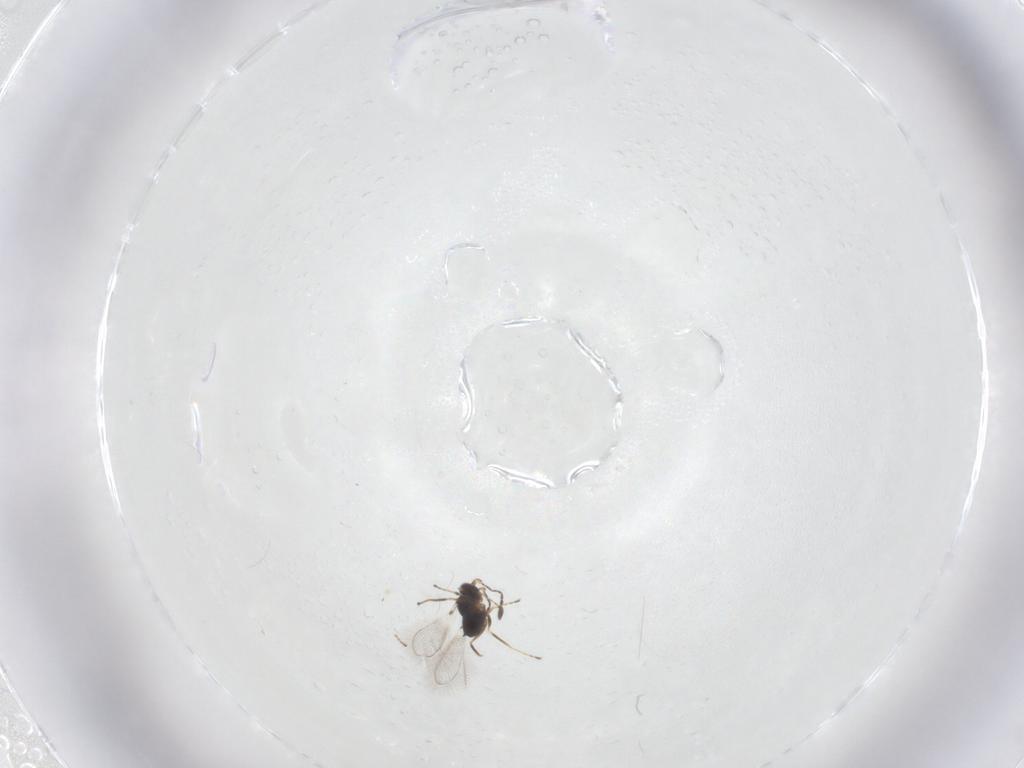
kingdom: Animalia
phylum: Arthropoda
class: Insecta
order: Hymenoptera
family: Mymaridae
